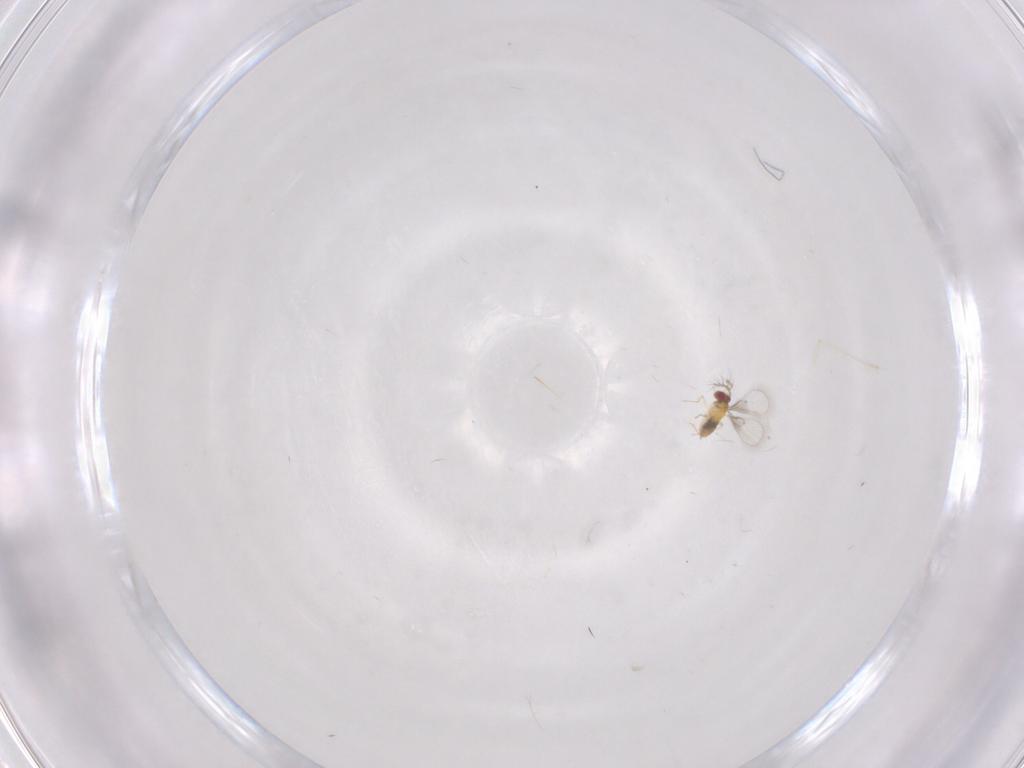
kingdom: Animalia
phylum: Arthropoda
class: Insecta
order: Hymenoptera
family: Trichogrammatidae
